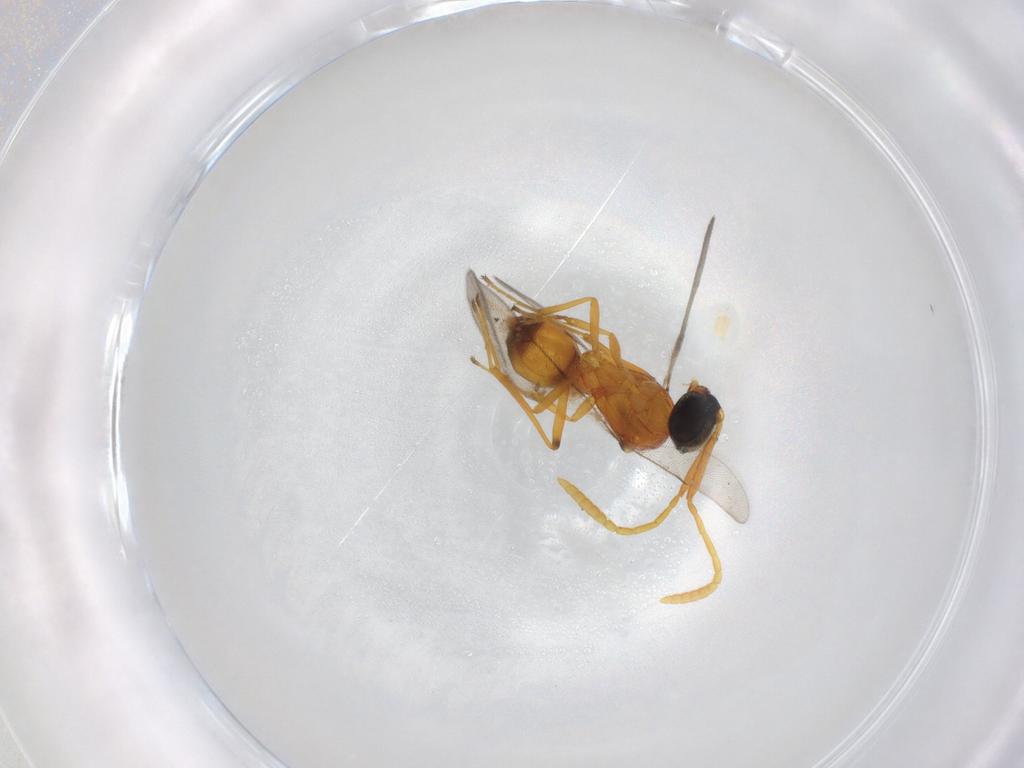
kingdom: Animalia
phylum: Arthropoda
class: Insecta
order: Hymenoptera
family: Scelionidae
